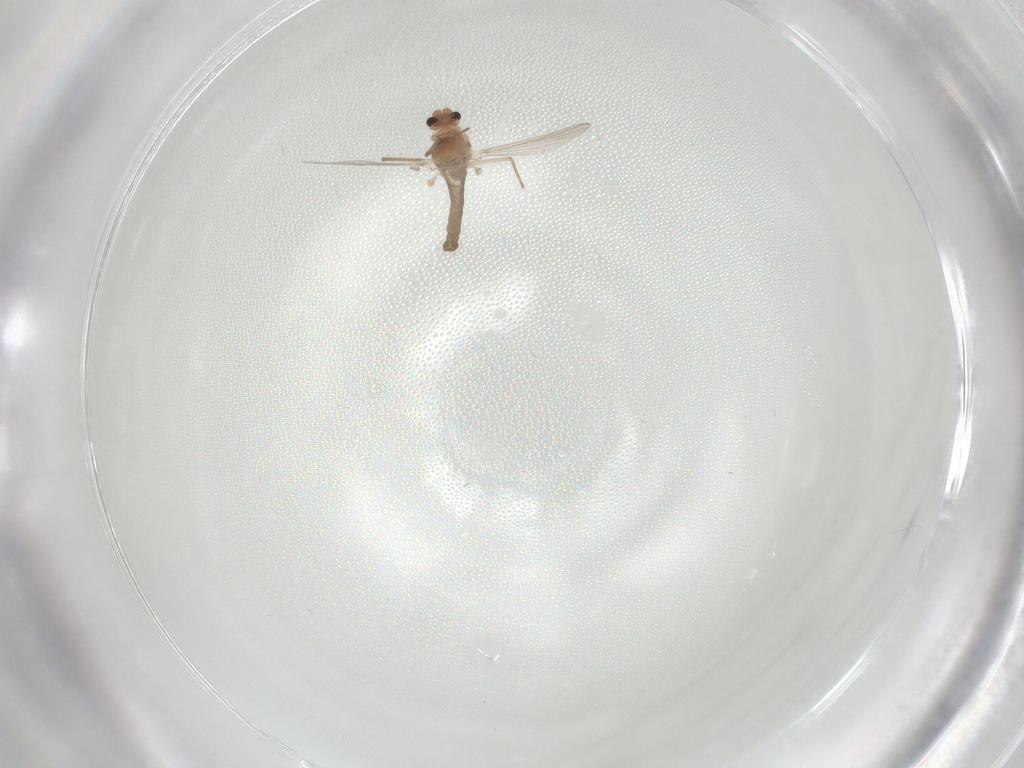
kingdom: Animalia
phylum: Arthropoda
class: Insecta
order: Diptera
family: Chironomidae
